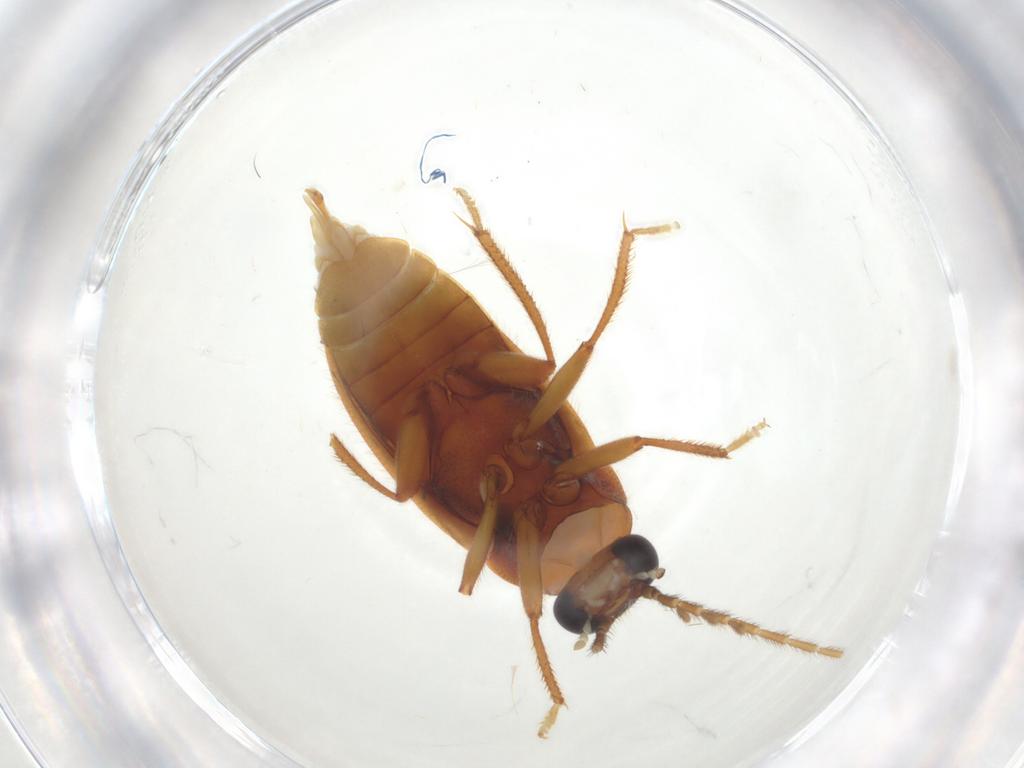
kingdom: Animalia
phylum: Arthropoda
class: Insecta
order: Coleoptera
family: Ptilodactylidae
